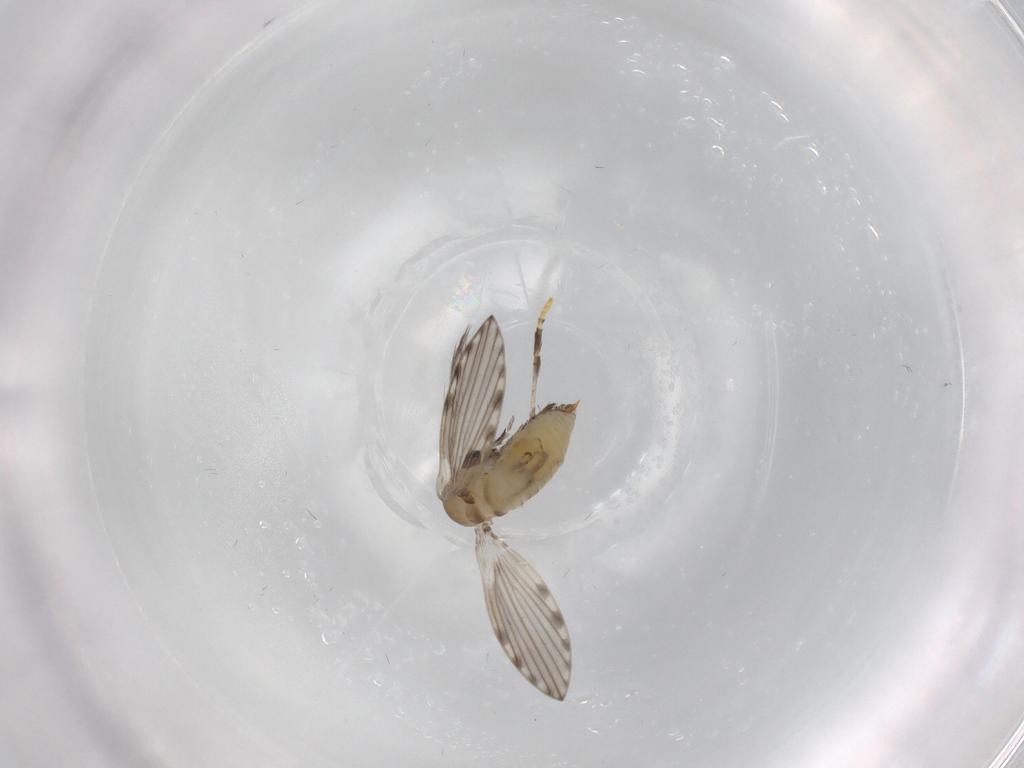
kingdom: Animalia
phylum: Arthropoda
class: Insecta
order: Diptera
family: Psychodidae
